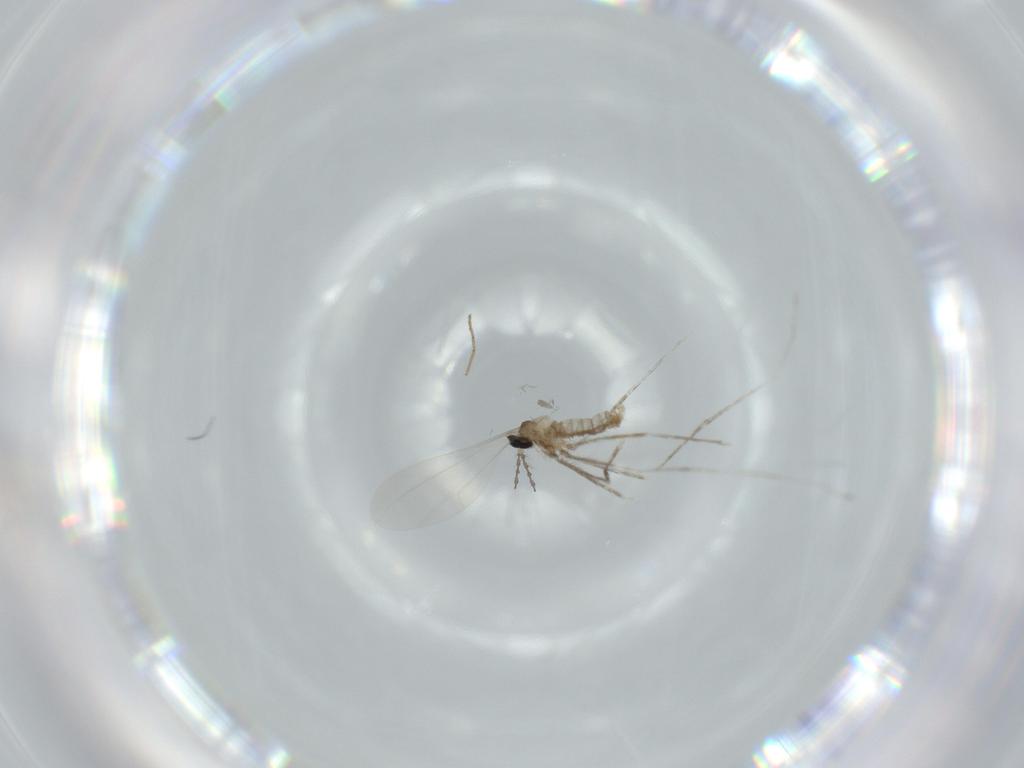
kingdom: Animalia
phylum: Arthropoda
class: Insecta
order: Diptera
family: Cecidomyiidae
